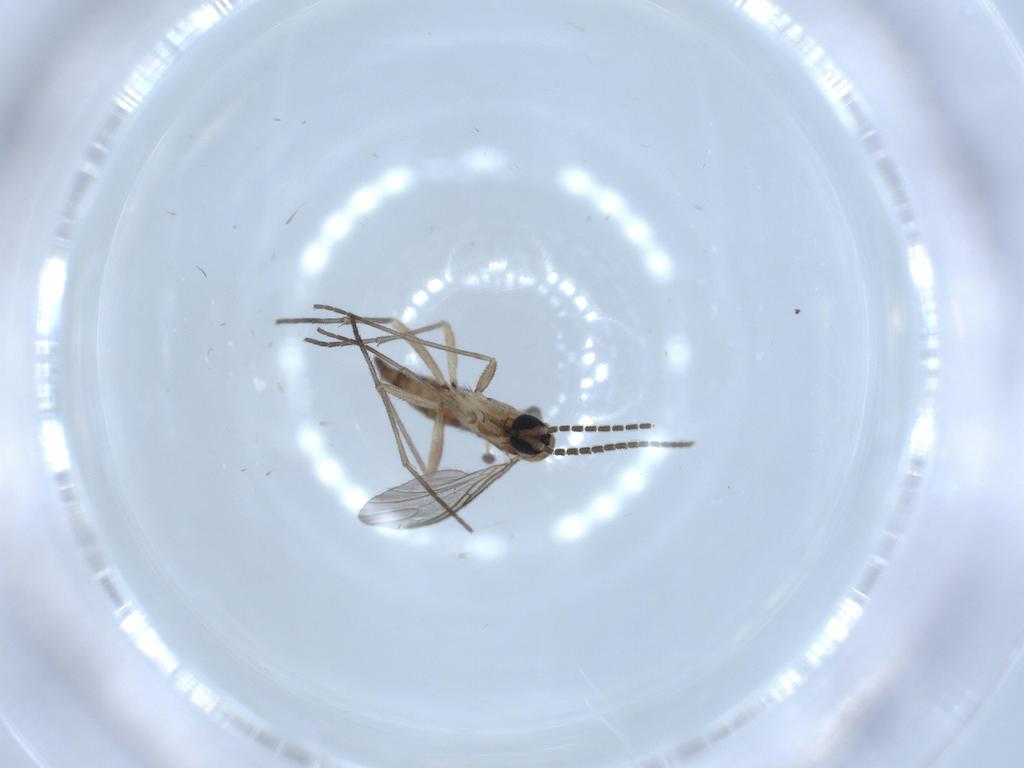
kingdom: Animalia
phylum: Arthropoda
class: Insecta
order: Diptera
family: Sciaridae
